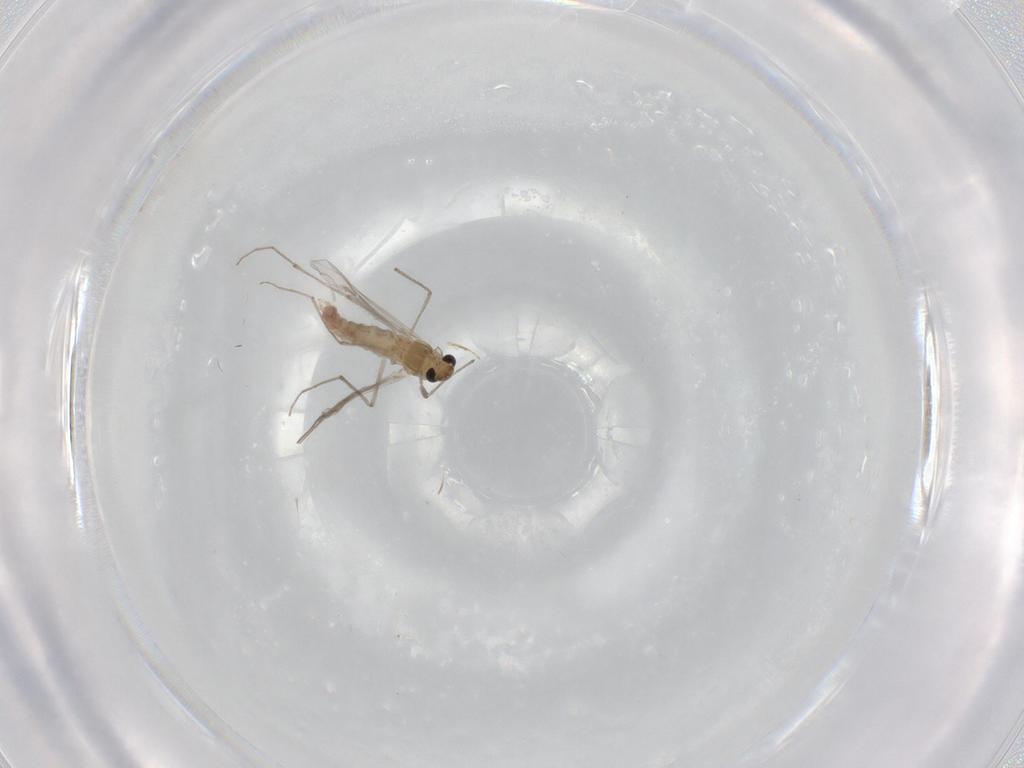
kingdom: Animalia
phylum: Arthropoda
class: Insecta
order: Diptera
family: Chironomidae
